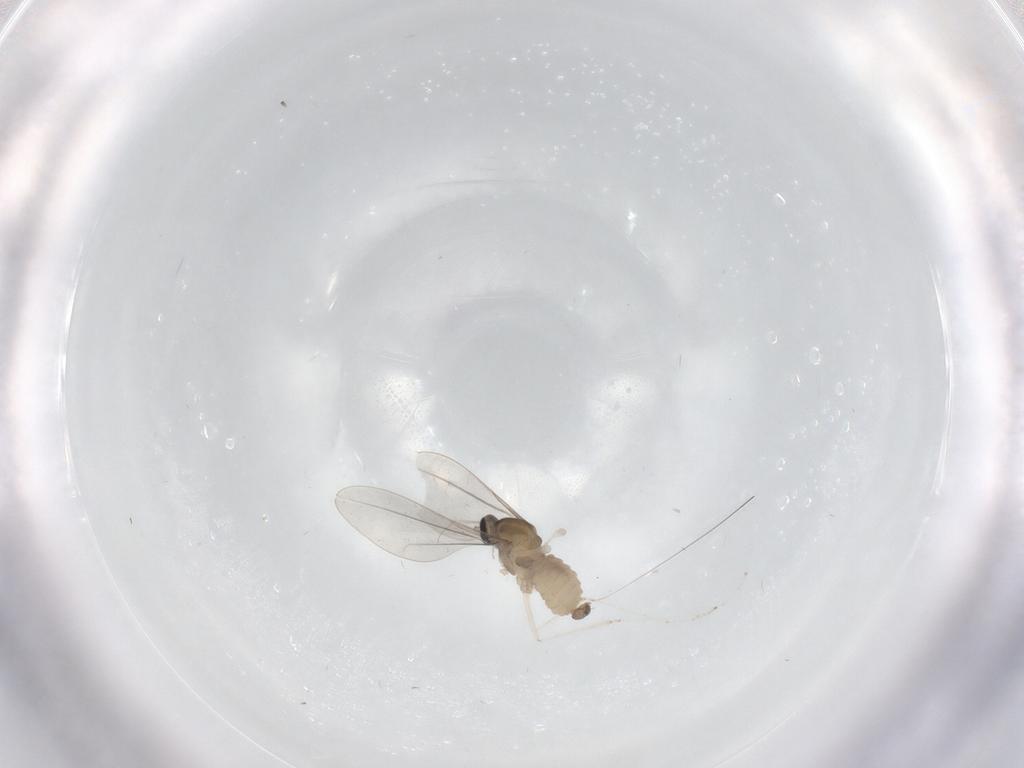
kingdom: Animalia
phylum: Arthropoda
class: Insecta
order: Diptera
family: Cecidomyiidae
